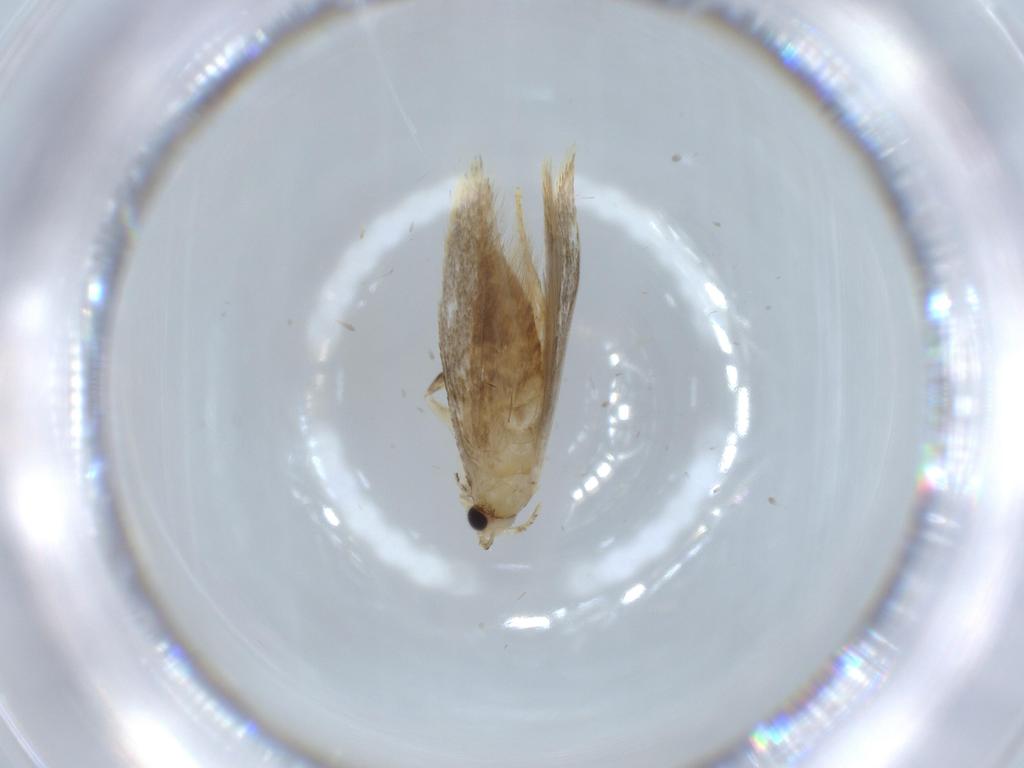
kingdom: Animalia
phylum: Arthropoda
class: Insecta
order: Lepidoptera
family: Tineidae
